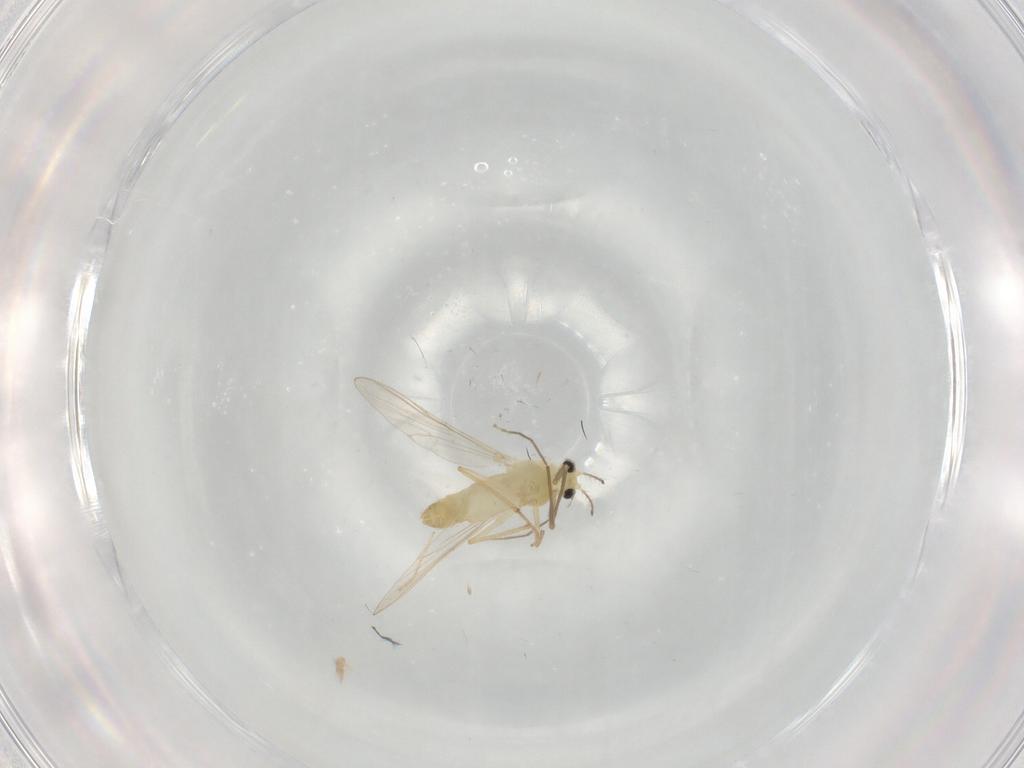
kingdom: Animalia
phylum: Arthropoda
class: Insecta
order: Diptera
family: Chironomidae
